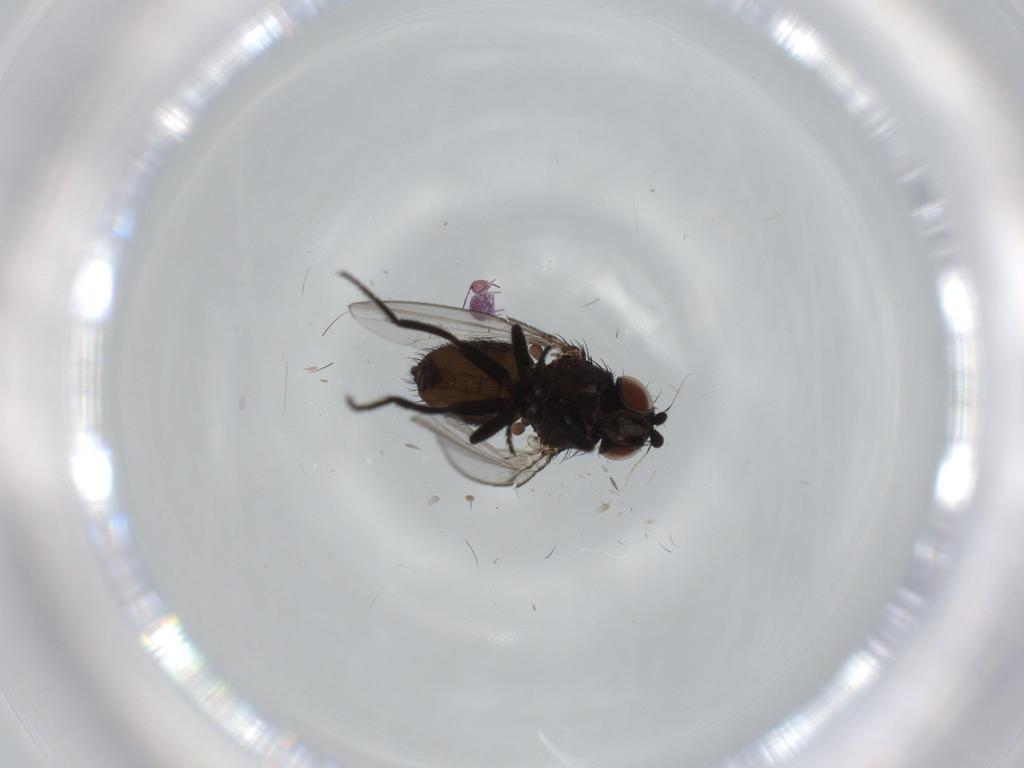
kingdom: Animalia
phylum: Arthropoda
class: Insecta
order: Diptera
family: Milichiidae
